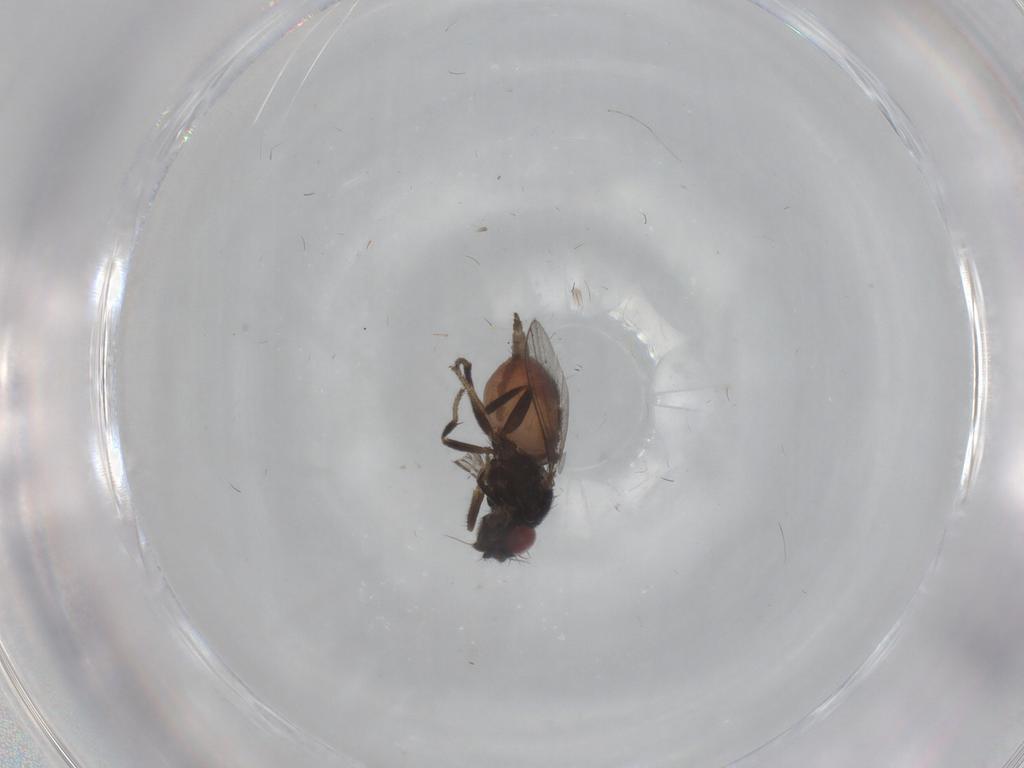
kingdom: Animalia
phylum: Arthropoda
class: Insecta
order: Diptera
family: Milichiidae
